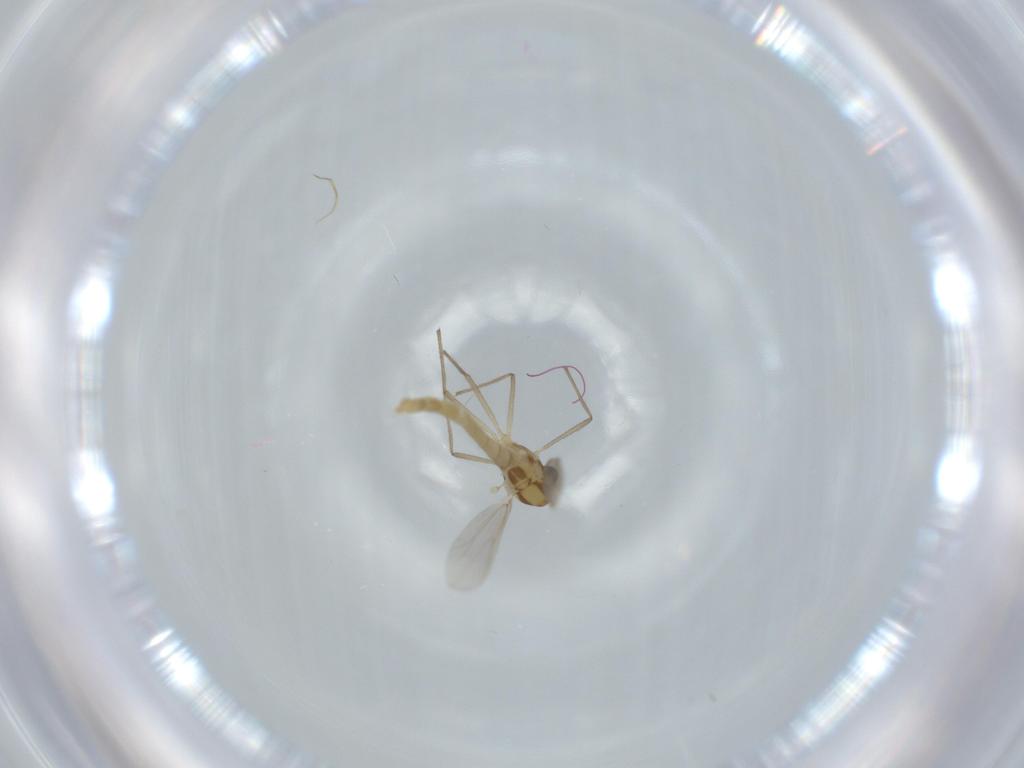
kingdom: Animalia
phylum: Arthropoda
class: Insecta
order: Diptera
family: Chironomidae
